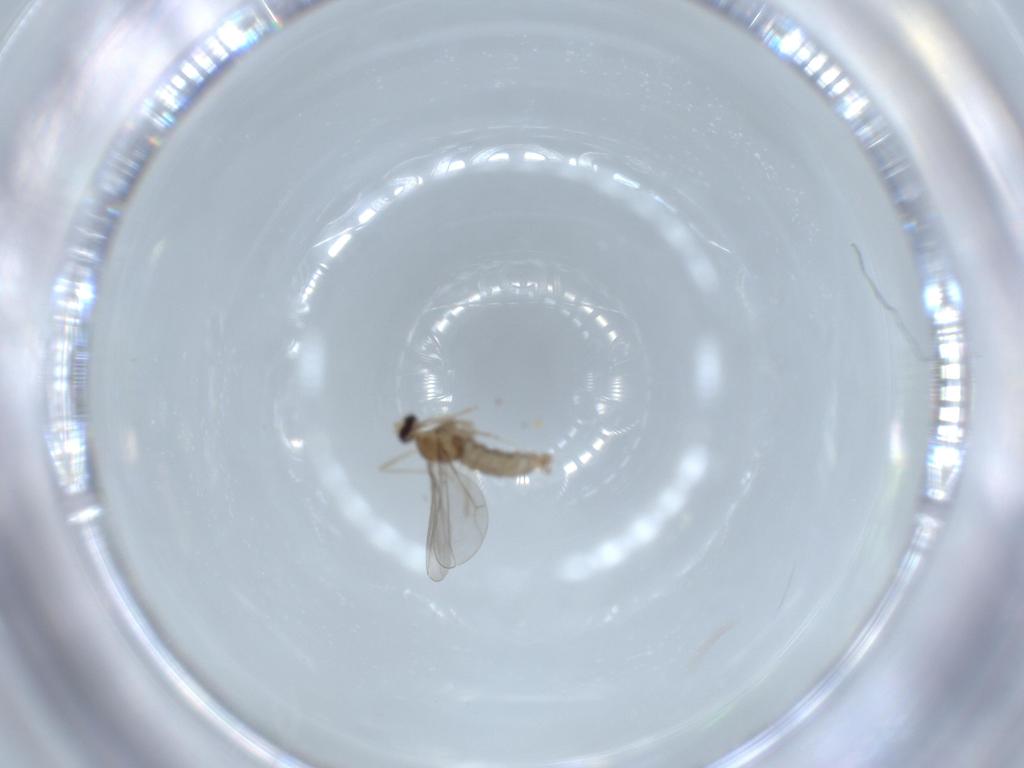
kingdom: Animalia
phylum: Arthropoda
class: Insecta
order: Diptera
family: Cecidomyiidae
